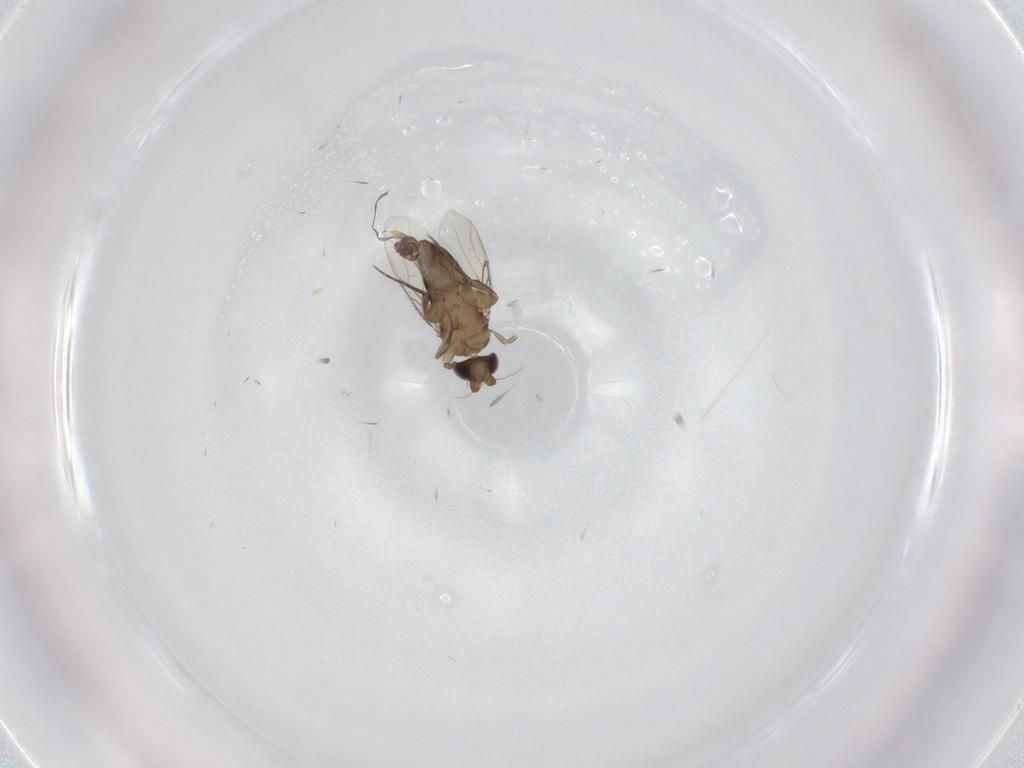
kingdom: Animalia
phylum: Arthropoda
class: Insecta
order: Diptera
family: Phoridae
